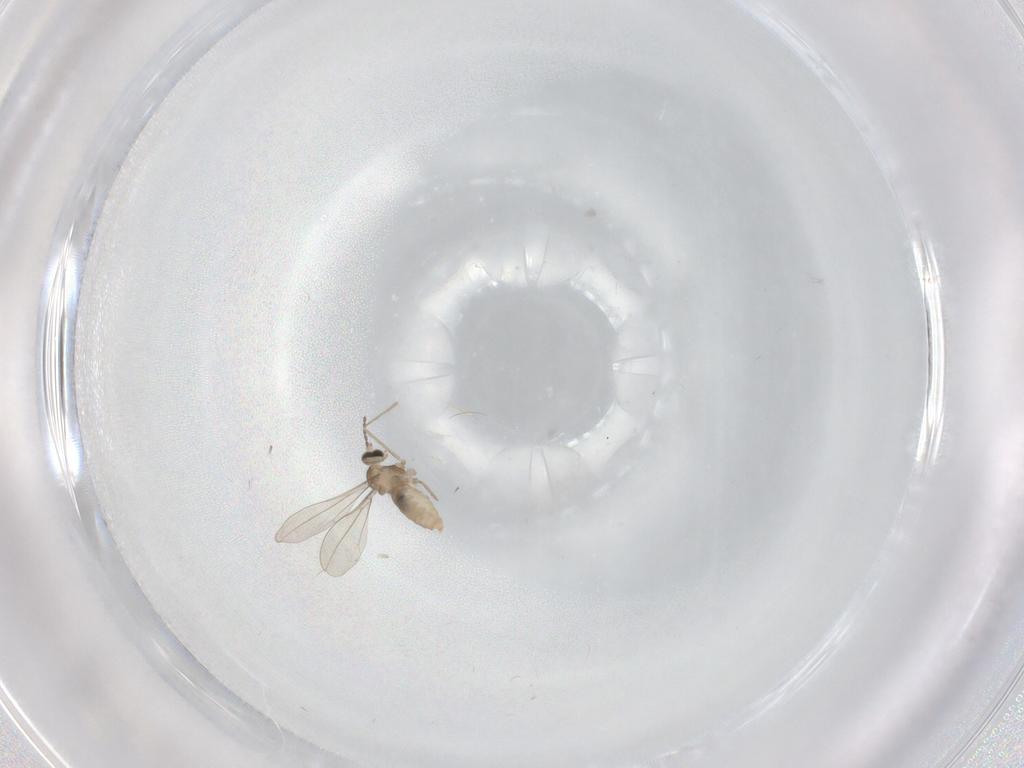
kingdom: Animalia
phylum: Arthropoda
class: Insecta
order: Diptera
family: Cecidomyiidae
